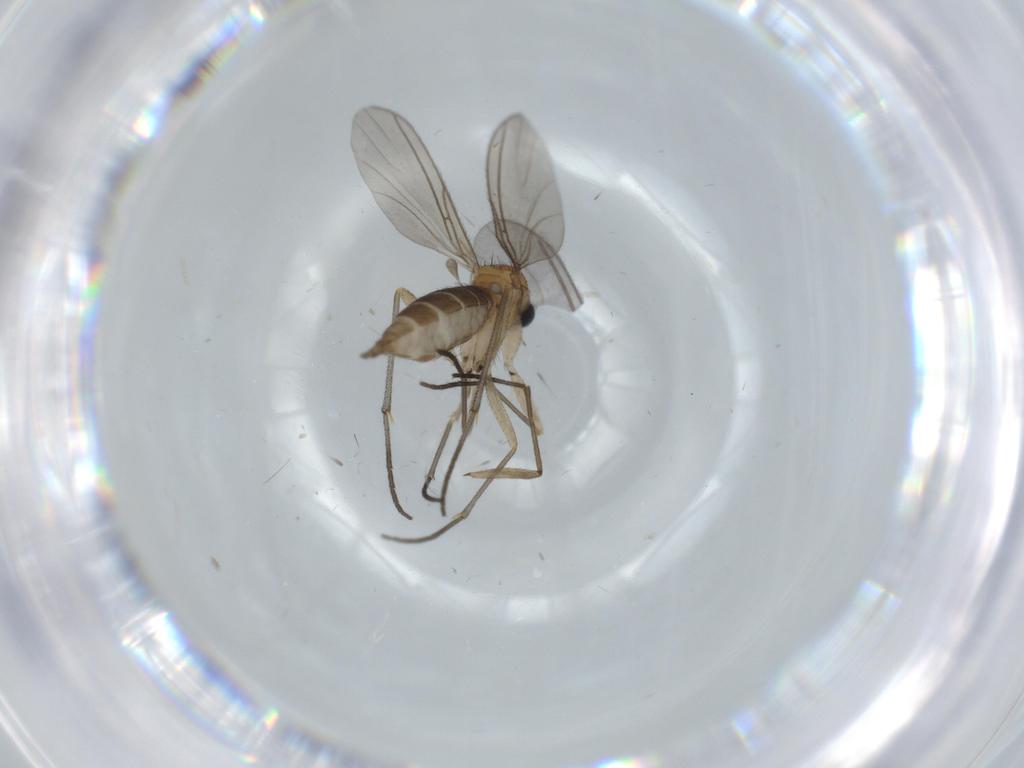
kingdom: Animalia
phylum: Arthropoda
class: Insecta
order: Diptera
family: Sciaridae
